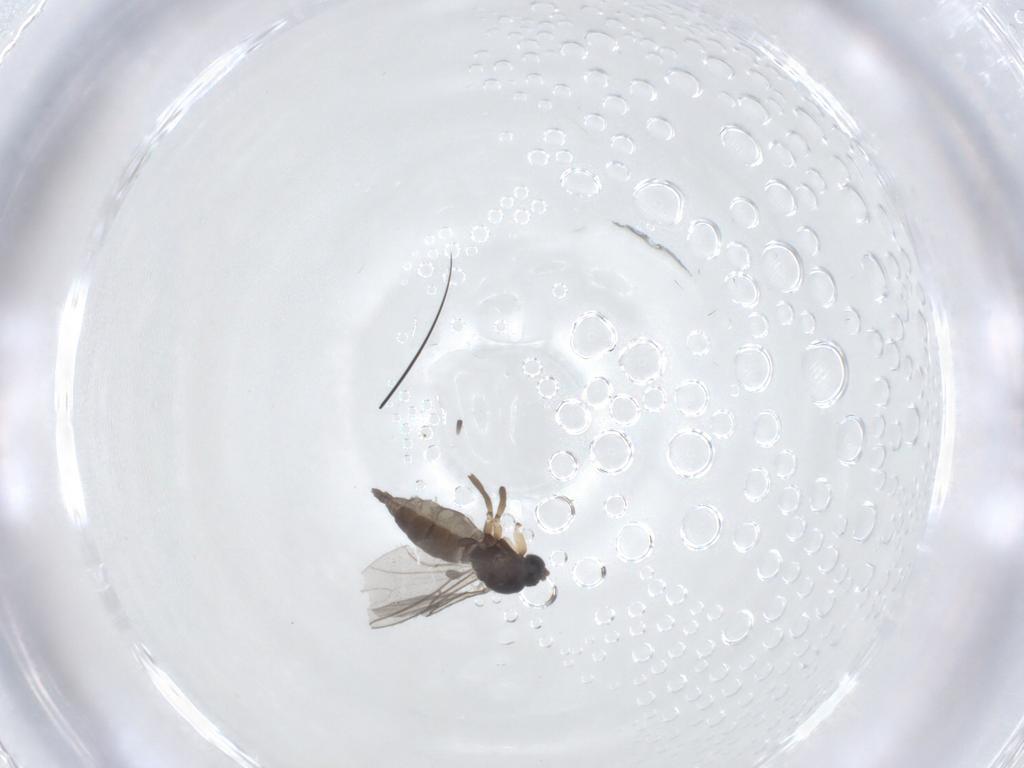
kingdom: Animalia
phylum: Arthropoda
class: Insecta
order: Diptera
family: Sciaridae
